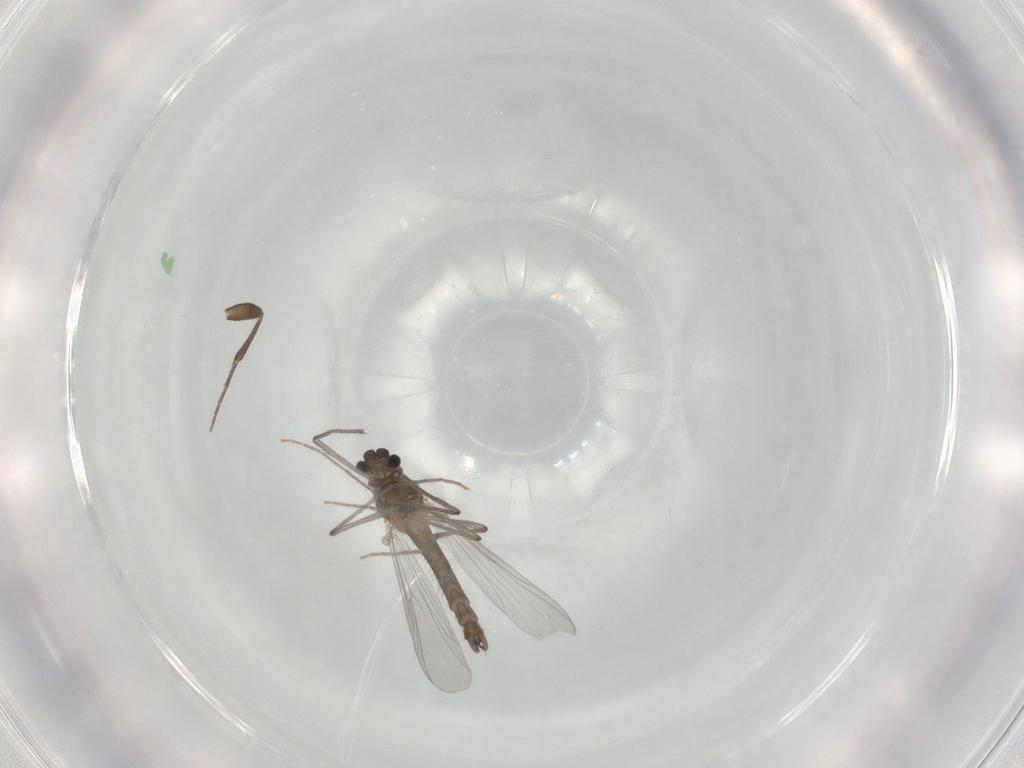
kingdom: Animalia
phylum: Arthropoda
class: Insecta
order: Diptera
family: Chironomidae
